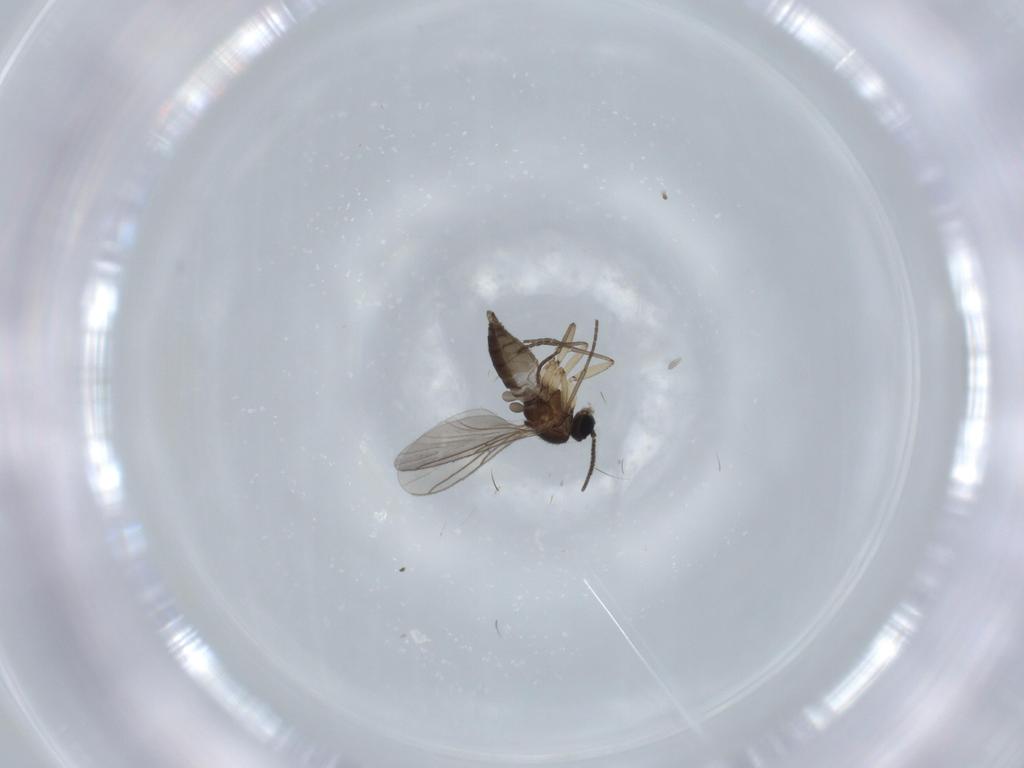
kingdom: Animalia
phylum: Arthropoda
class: Insecta
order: Diptera
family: Sciaridae
